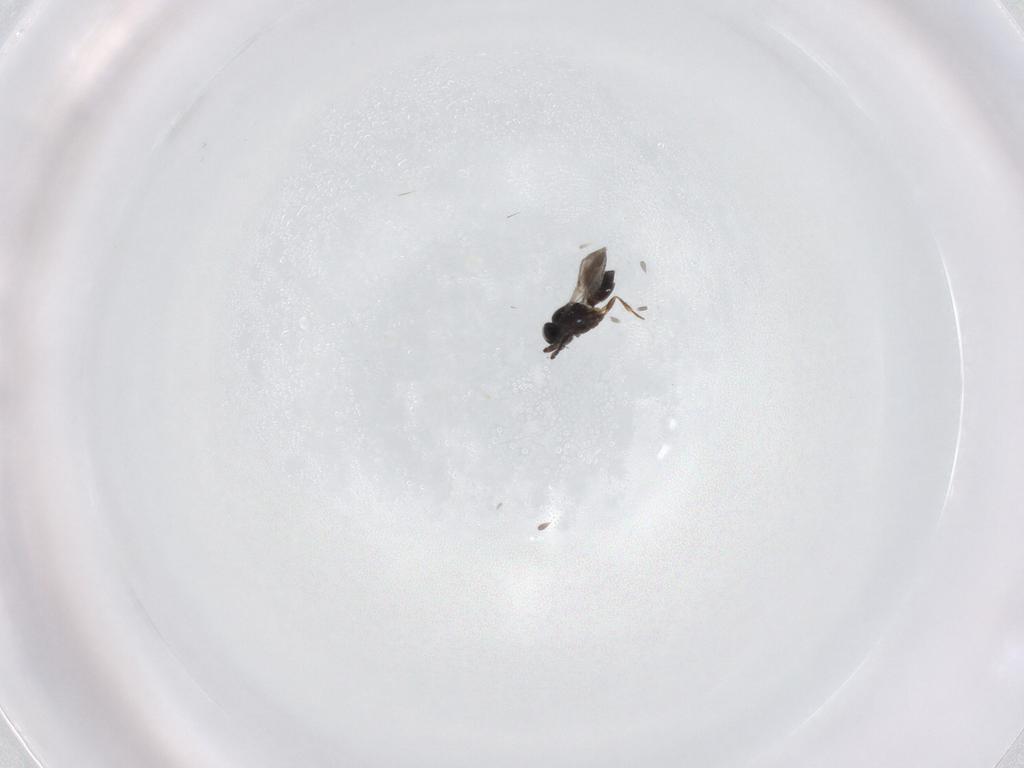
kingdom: Animalia
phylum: Arthropoda
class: Insecta
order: Hymenoptera
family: Scelionidae
